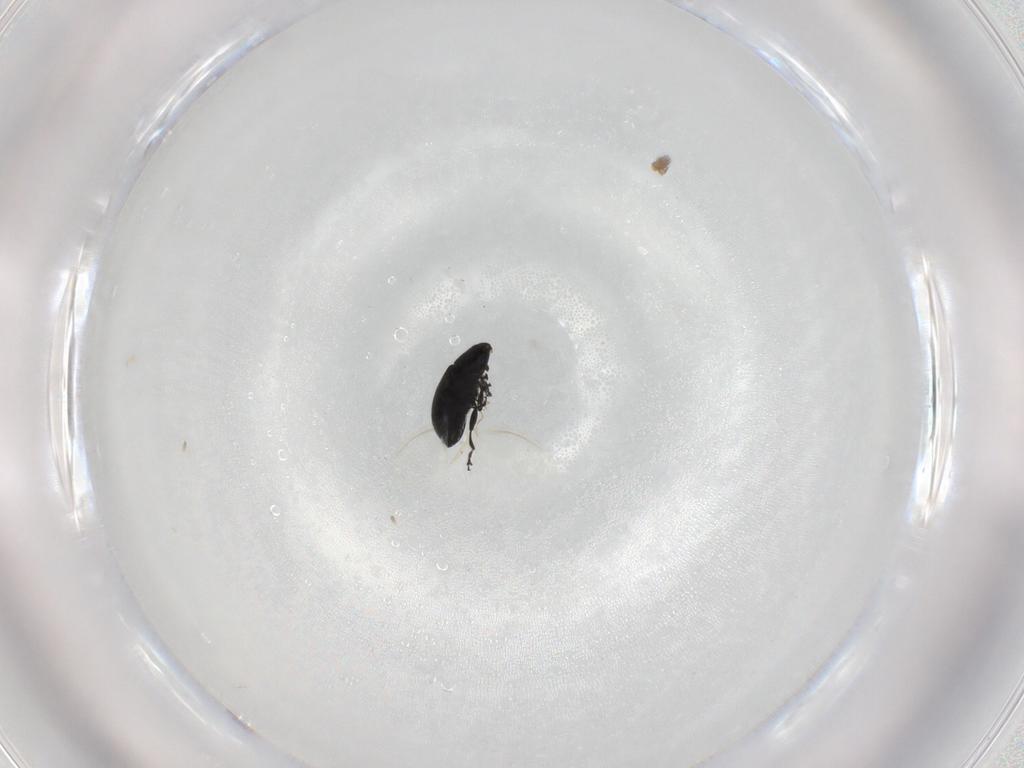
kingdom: Animalia
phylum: Arthropoda
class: Insecta
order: Coleoptera
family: Curculionidae
